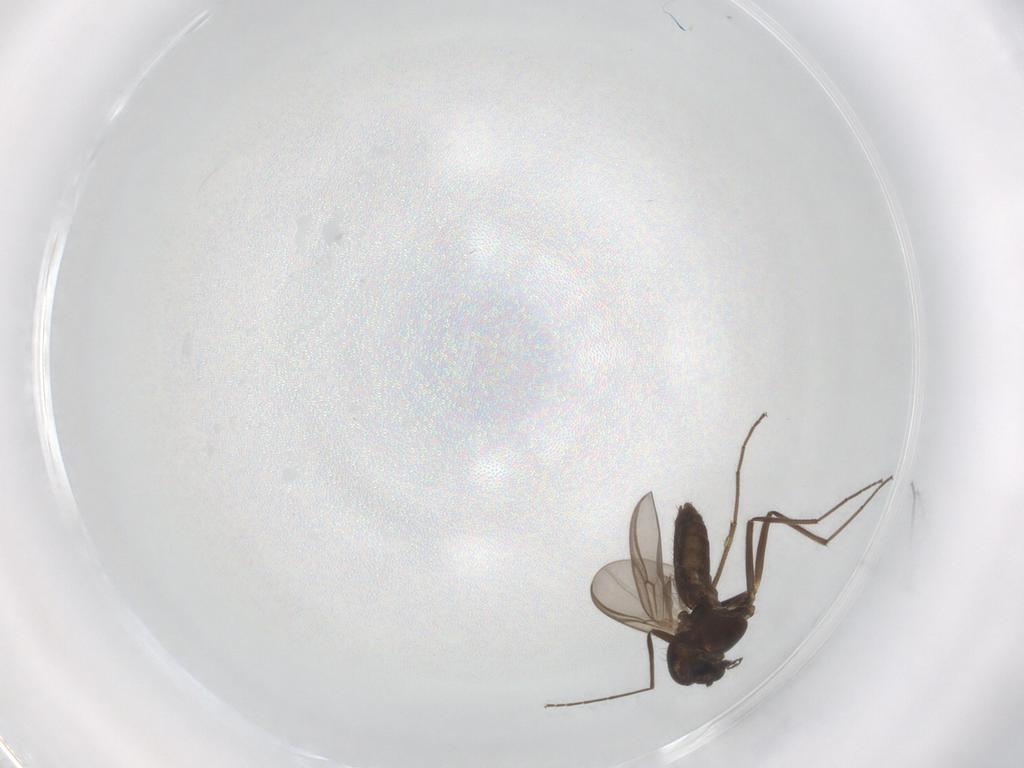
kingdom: Animalia
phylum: Arthropoda
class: Insecta
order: Diptera
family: Chironomidae
